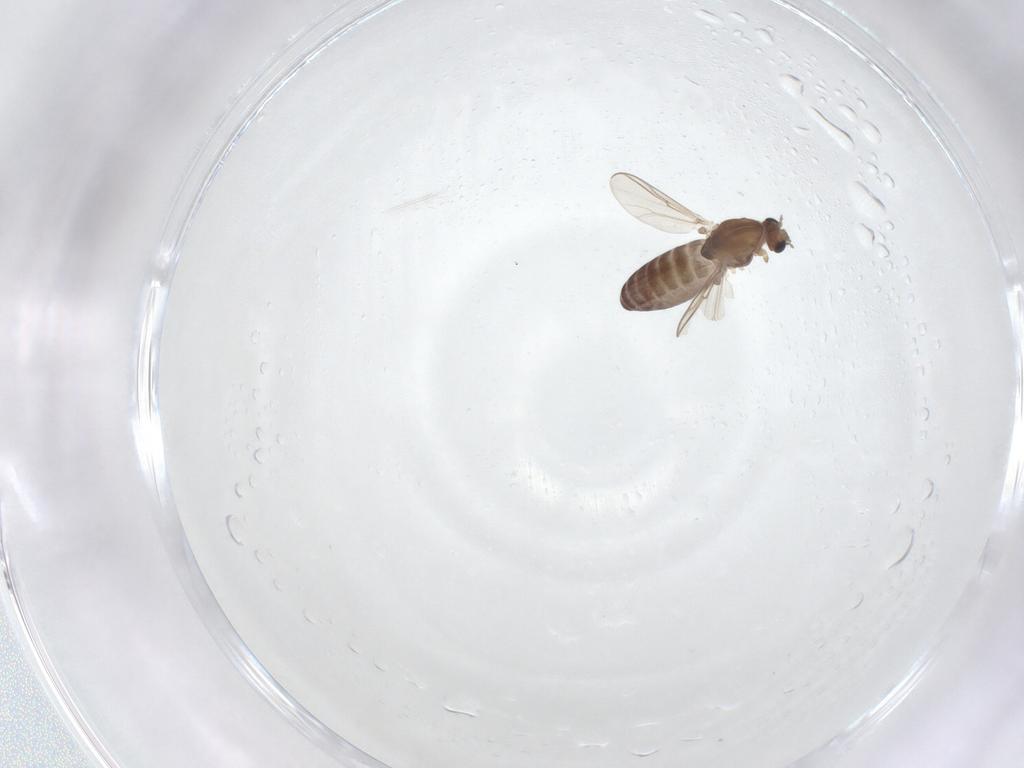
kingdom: Animalia
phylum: Arthropoda
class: Insecta
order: Diptera
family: Chironomidae
